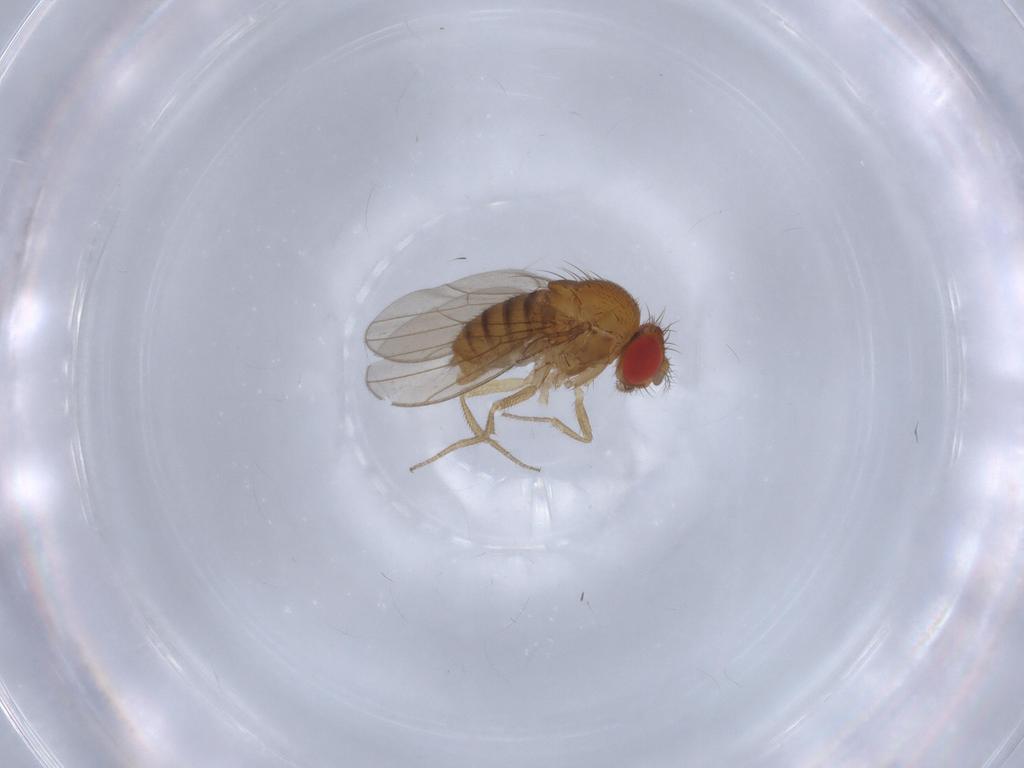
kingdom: Animalia
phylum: Arthropoda
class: Insecta
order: Diptera
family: Drosophilidae
